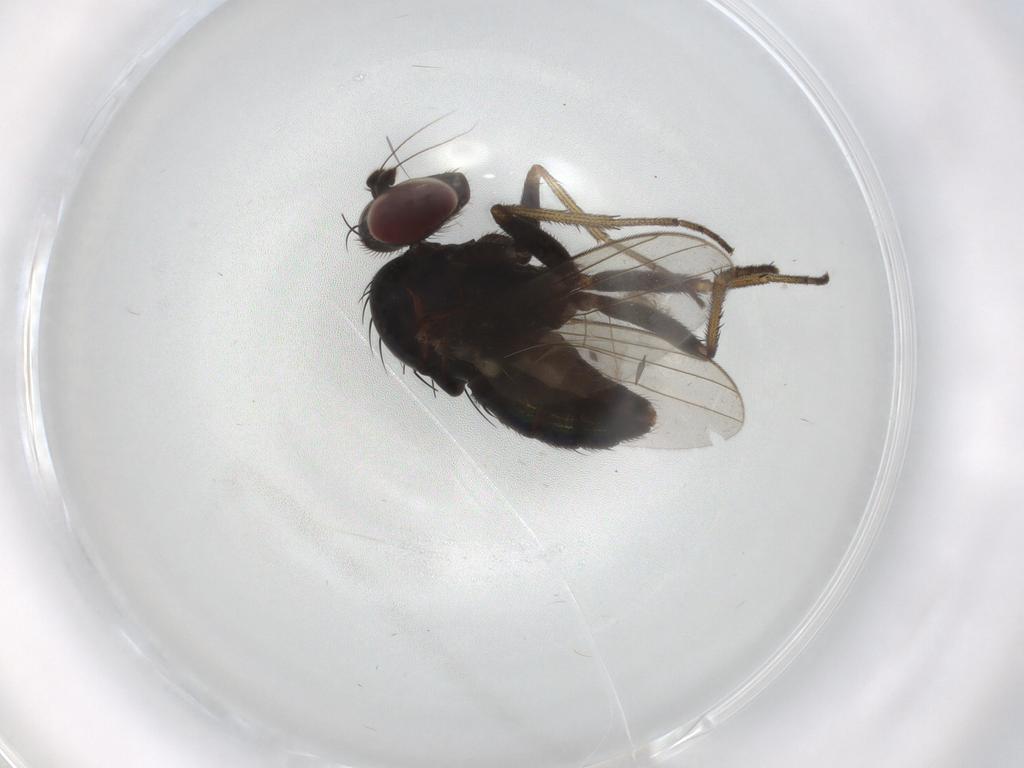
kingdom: Animalia
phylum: Arthropoda
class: Insecta
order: Diptera
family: Dolichopodidae
